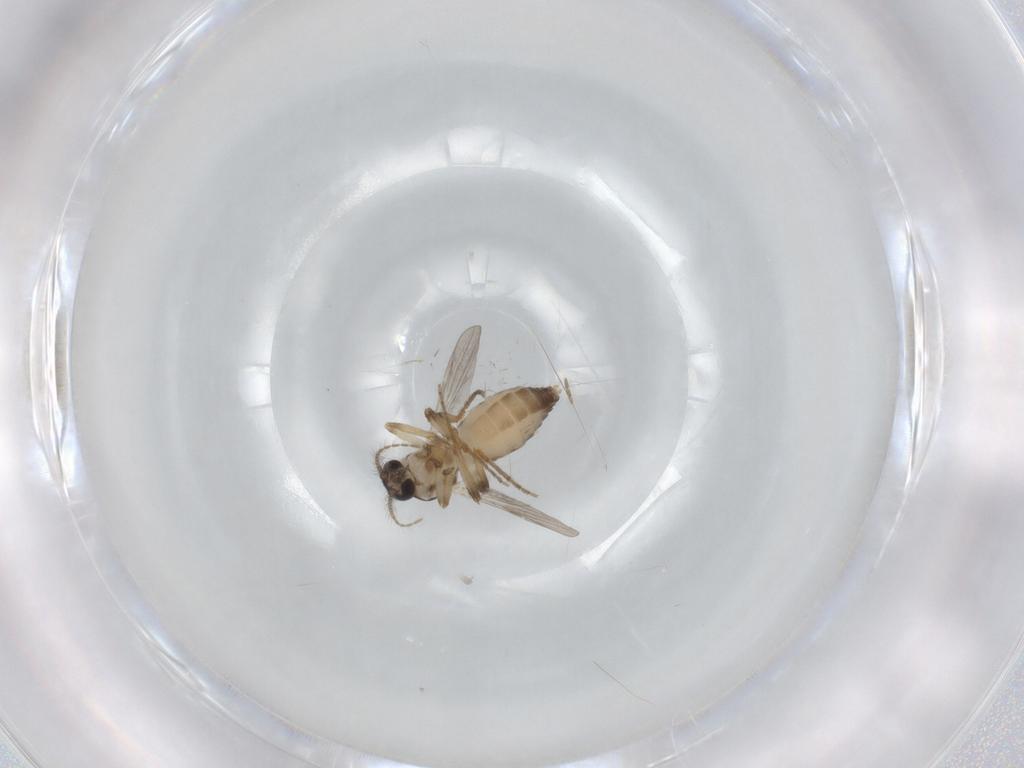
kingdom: Animalia
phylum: Arthropoda
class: Insecta
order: Diptera
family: Ceratopogonidae
